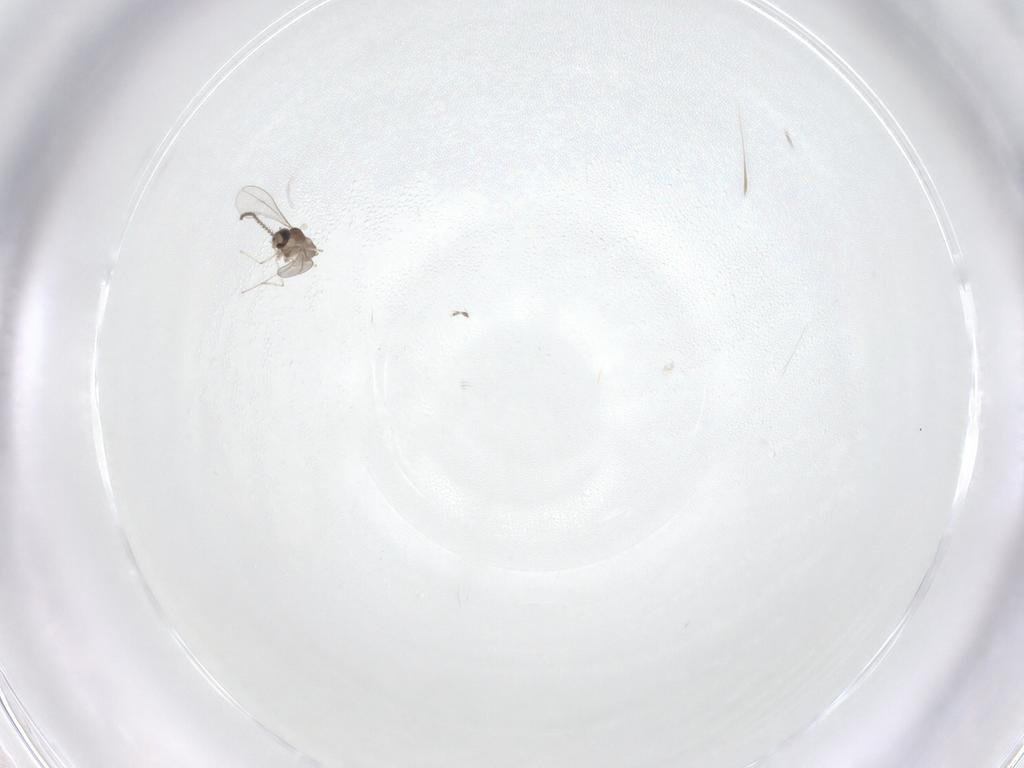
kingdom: Animalia
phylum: Arthropoda
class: Insecta
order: Diptera
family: Ceratopogonidae
